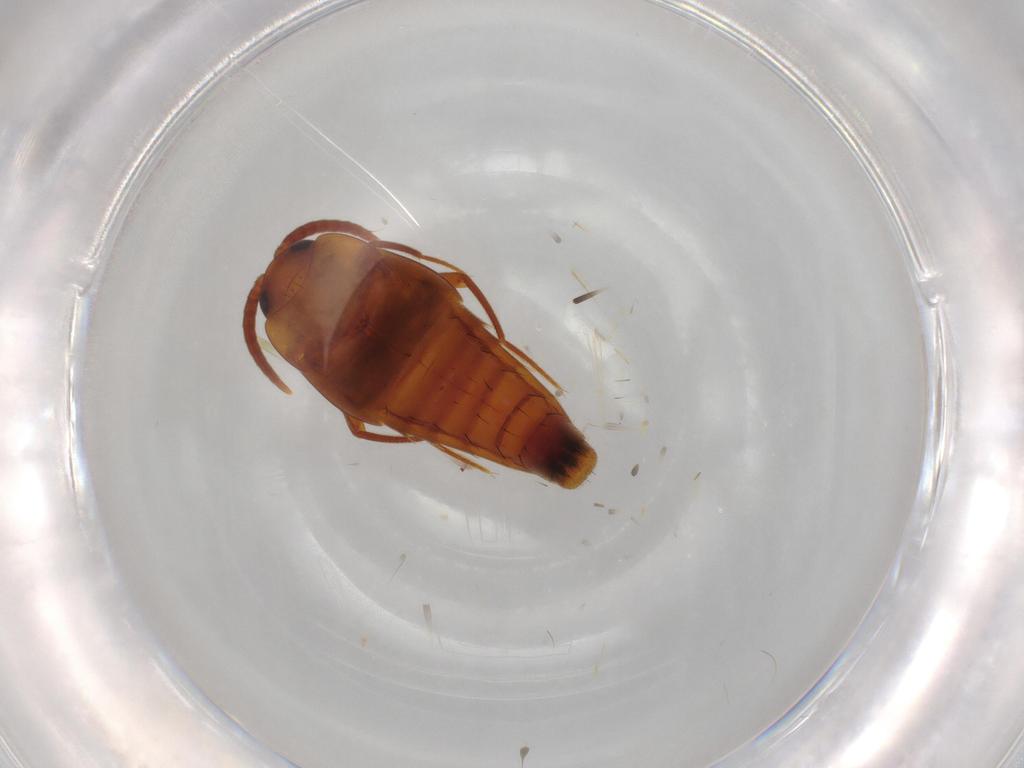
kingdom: Animalia
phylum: Arthropoda
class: Insecta
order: Coleoptera
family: Staphylinidae
